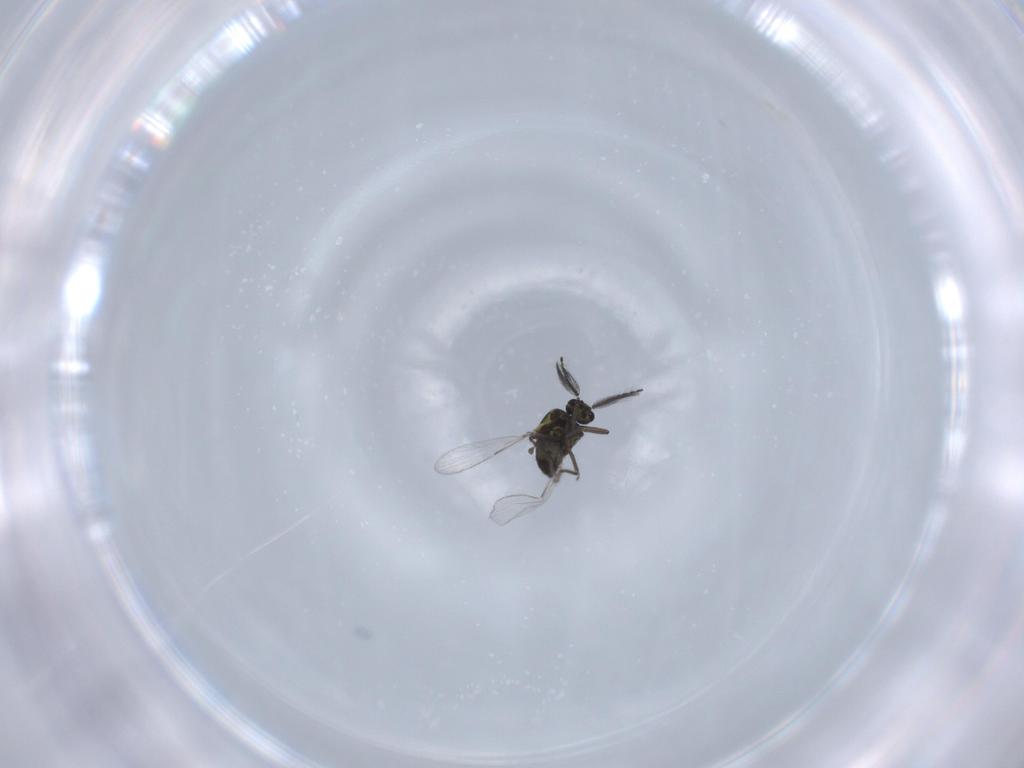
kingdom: Animalia
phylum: Arthropoda
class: Insecta
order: Diptera
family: Ceratopogonidae
